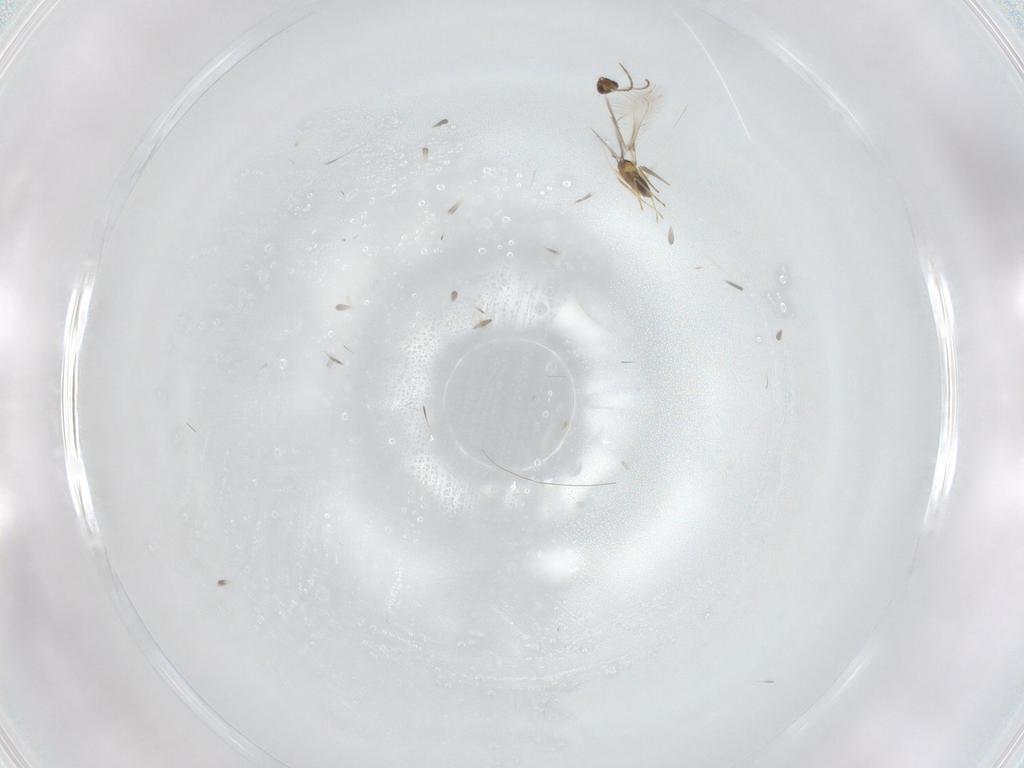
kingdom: Animalia
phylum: Arthropoda
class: Insecta
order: Hymenoptera
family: Mymaridae
